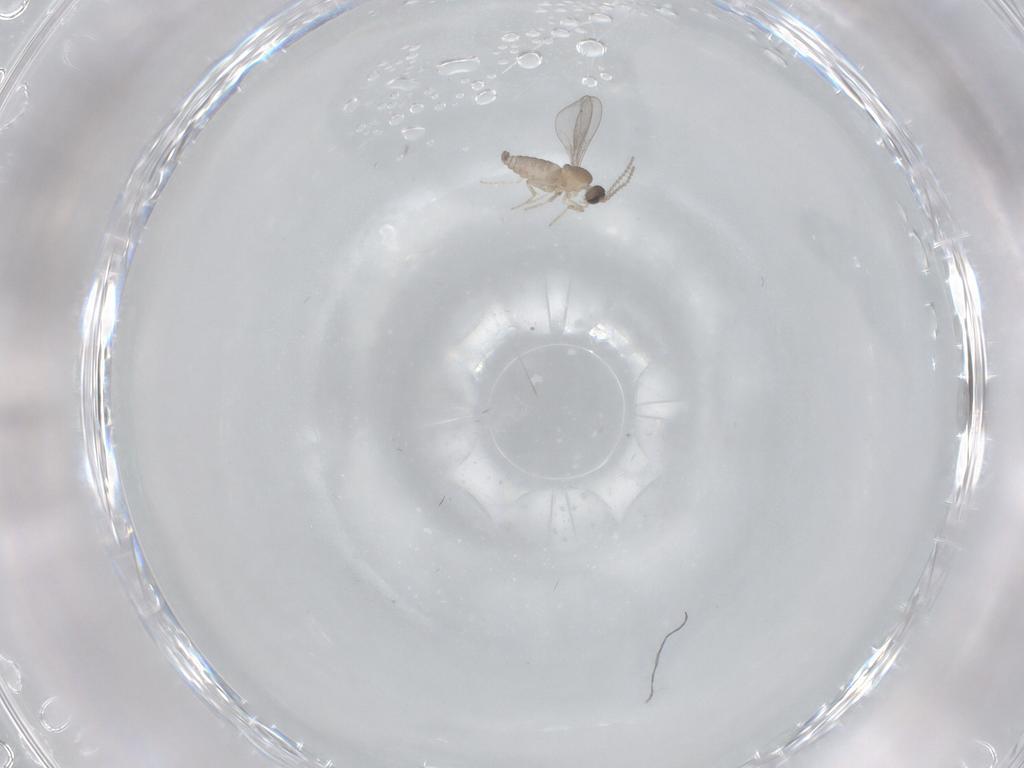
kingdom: Animalia
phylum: Arthropoda
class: Insecta
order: Diptera
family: Cecidomyiidae
